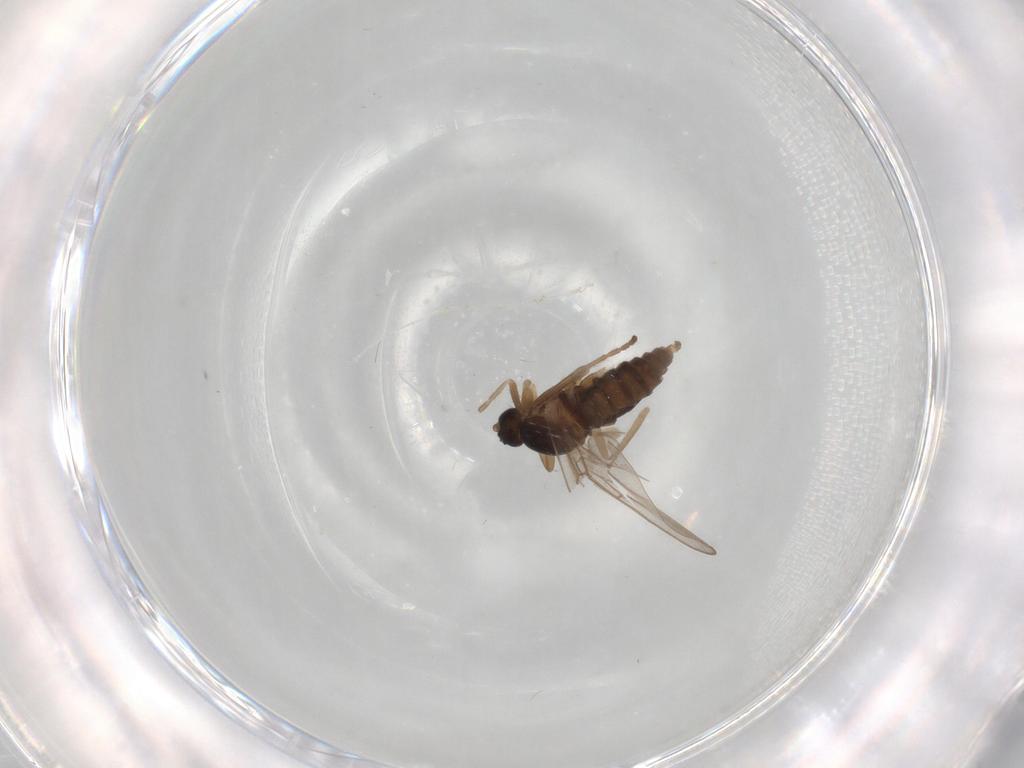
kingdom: Animalia
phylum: Arthropoda
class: Insecta
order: Diptera
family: Cecidomyiidae
